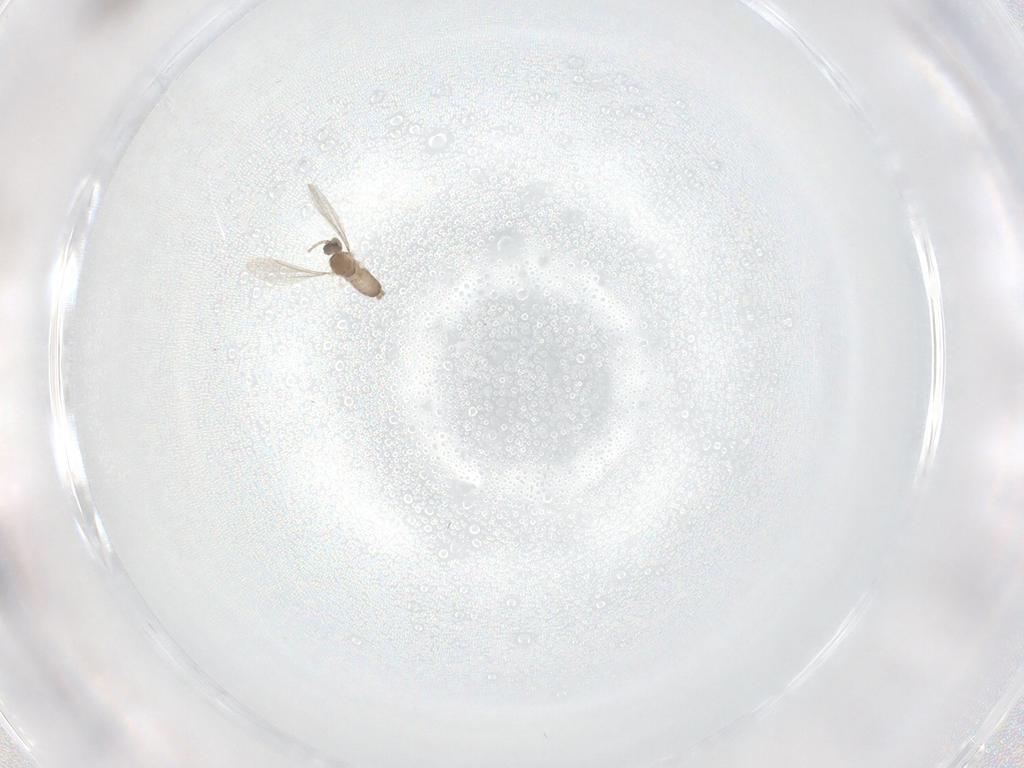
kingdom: Animalia
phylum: Arthropoda
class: Insecta
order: Diptera
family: Cecidomyiidae
